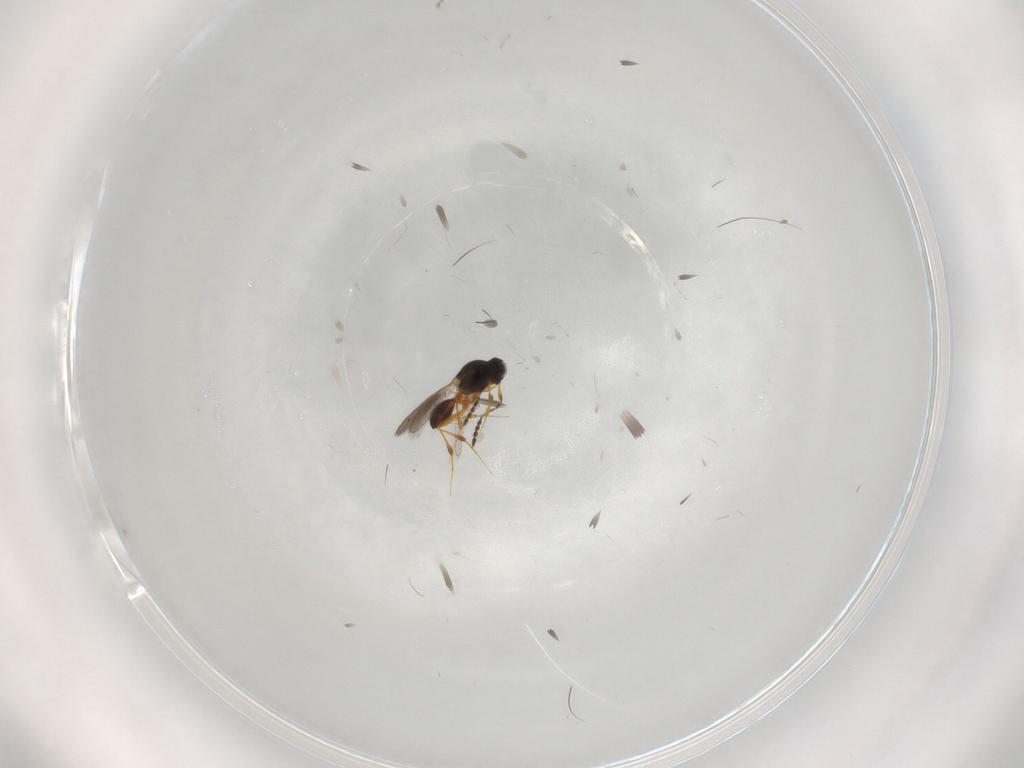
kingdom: Animalia
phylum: Arthropoda
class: Insecta
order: Hymenoptera
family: Platygastridae
